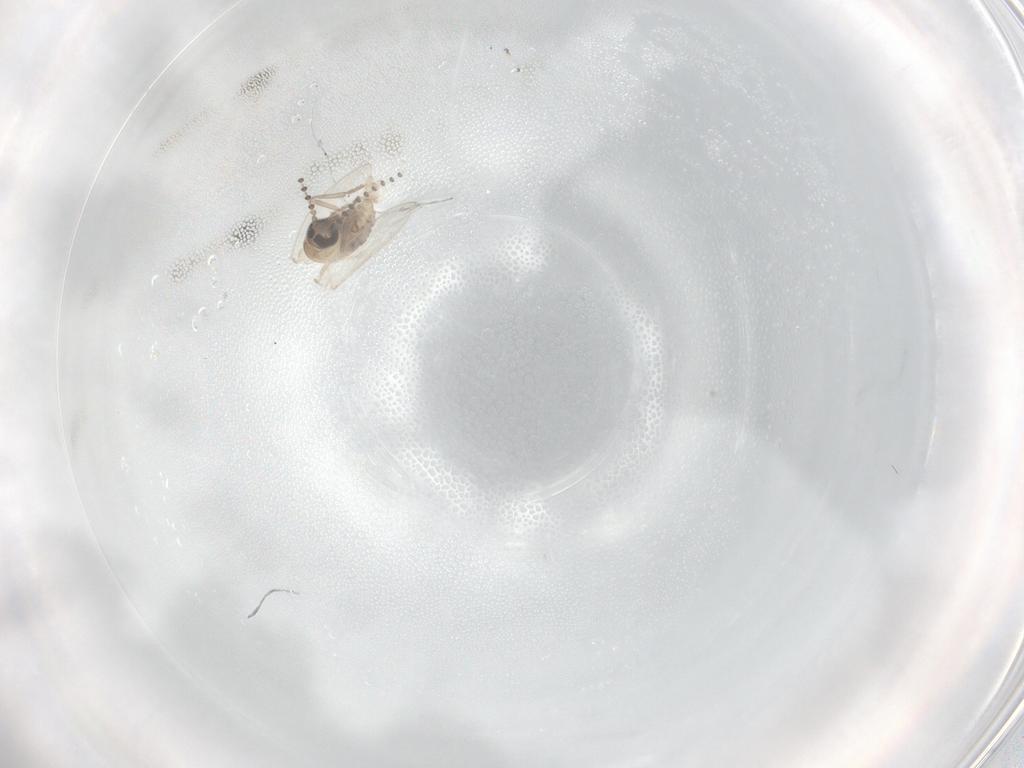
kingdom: Animalia
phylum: Arthropoda
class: Insecta
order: Diptera
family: Psychodidae
